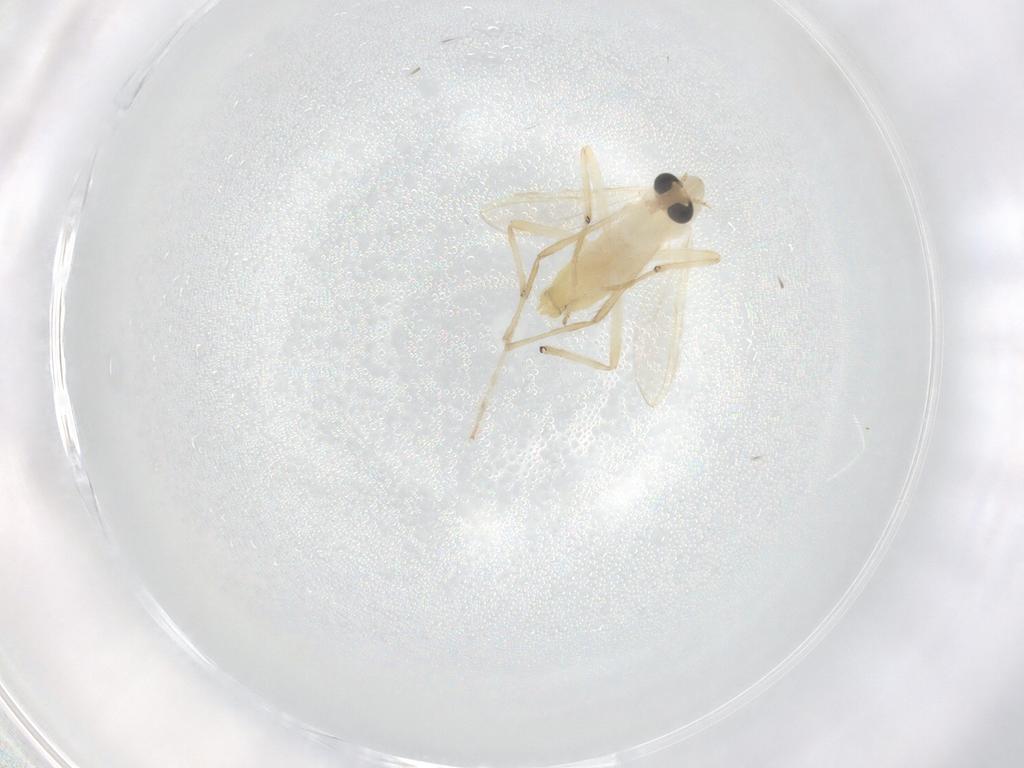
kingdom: Animalia
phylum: Arthropoda
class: Insecta
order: Diptera
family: Chironomidae
